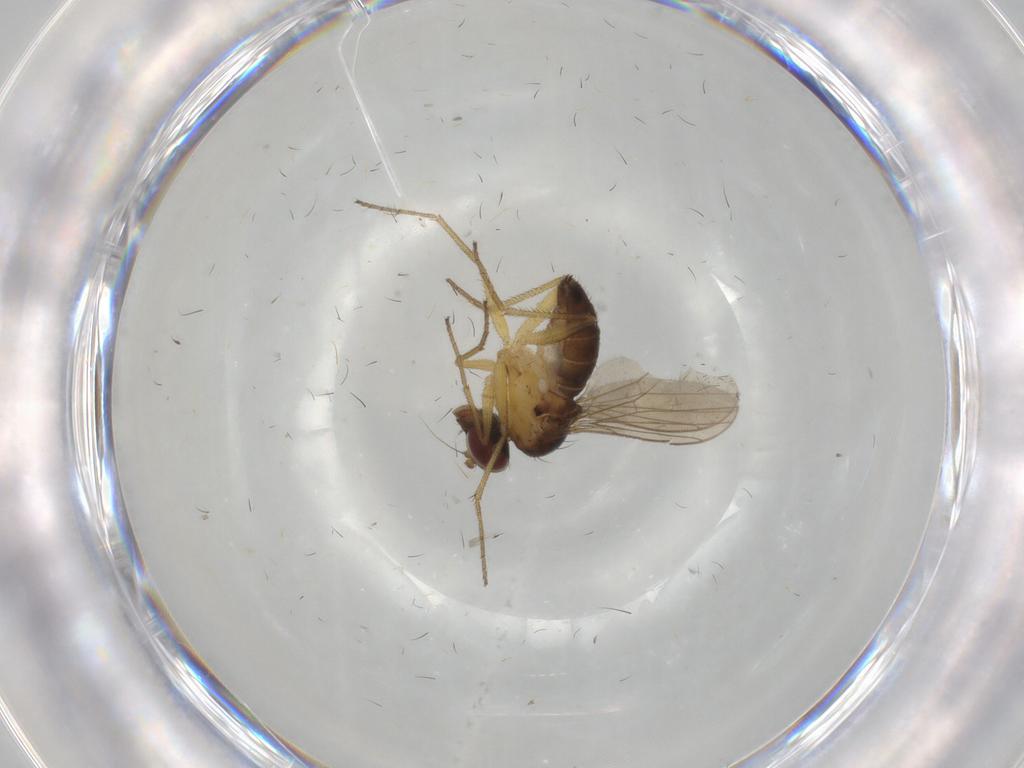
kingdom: Animalia
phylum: Arthropoda
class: Insecta
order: Diptera
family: Dolichopodidae
